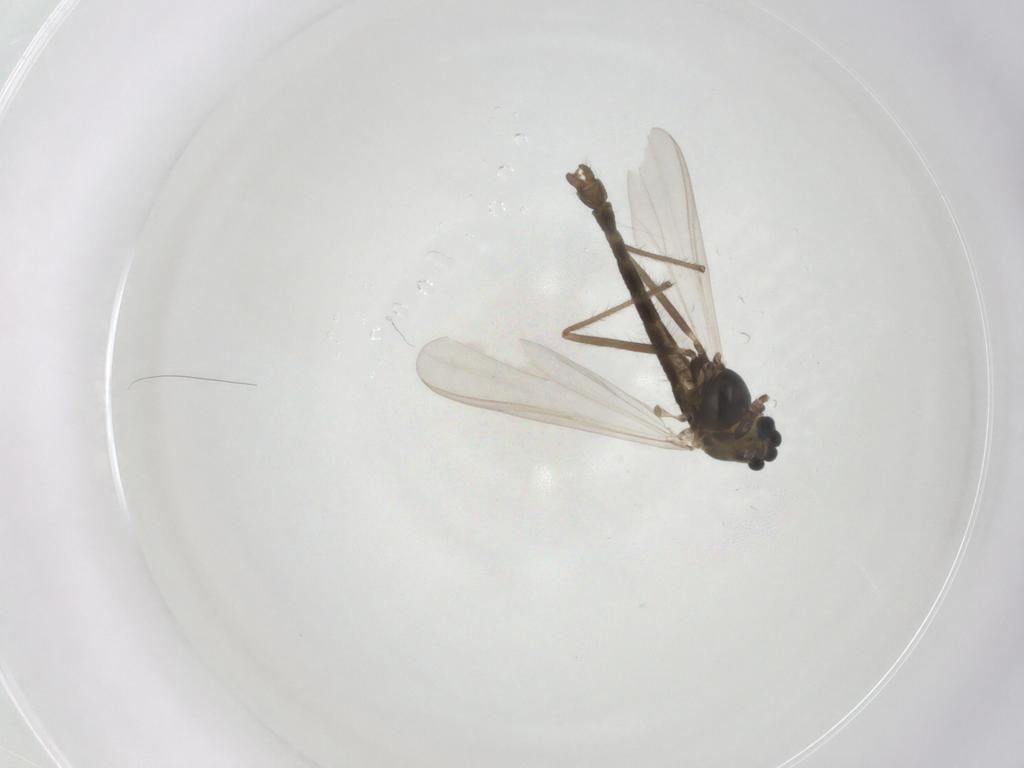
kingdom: Animalia
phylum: Arthropoda
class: Insecta
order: Diptera
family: Chironomidae
